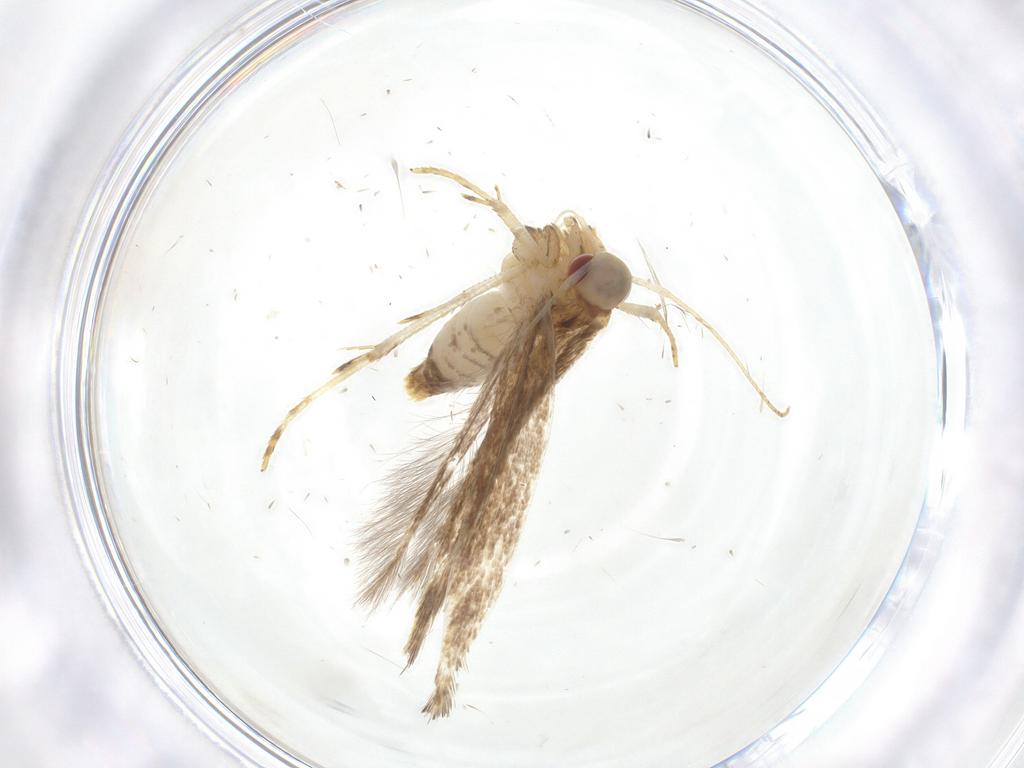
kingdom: Animalia
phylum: Arthropoda
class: Insecta
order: Lepidoptera
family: Cosmopterigidae
